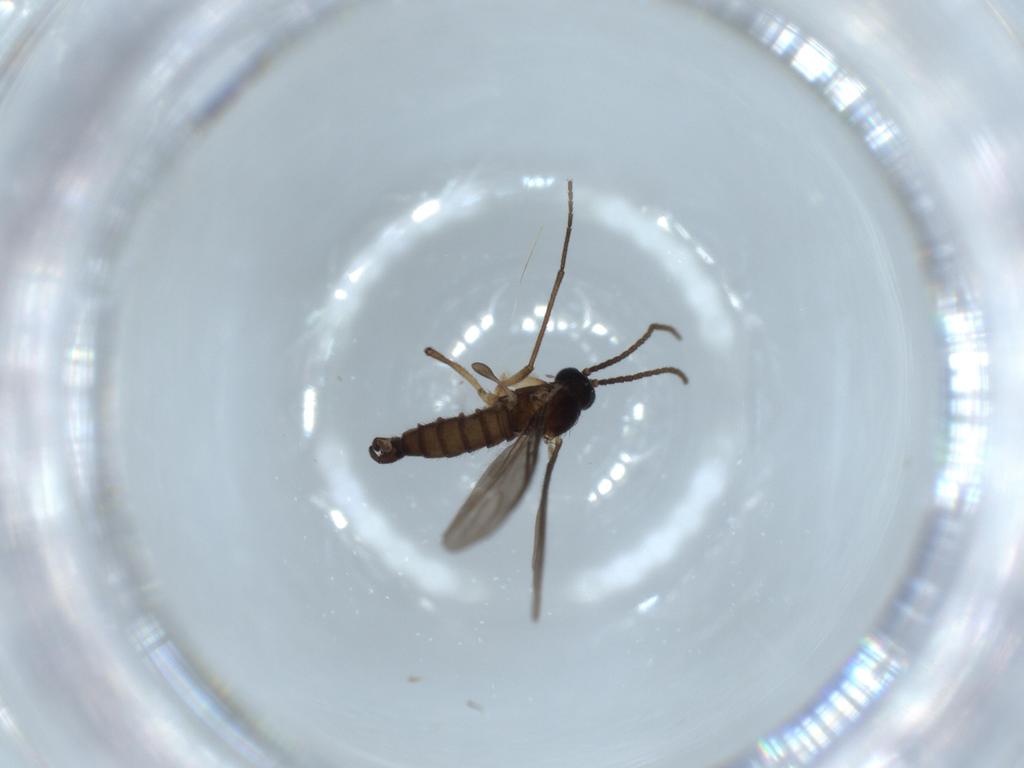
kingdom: Animalia
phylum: Arthropoda
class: Insecta
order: Diptera
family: Sciaridae
